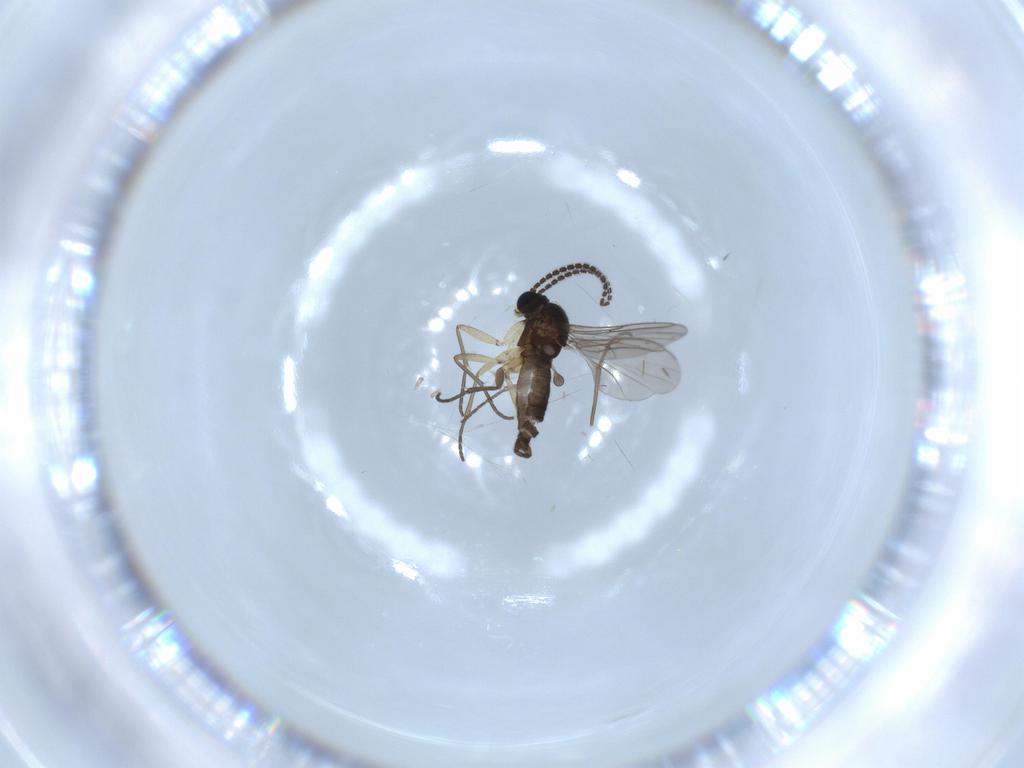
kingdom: Animalia
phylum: Arthropoda
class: Insecta
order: Diptera
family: Sciaridae
